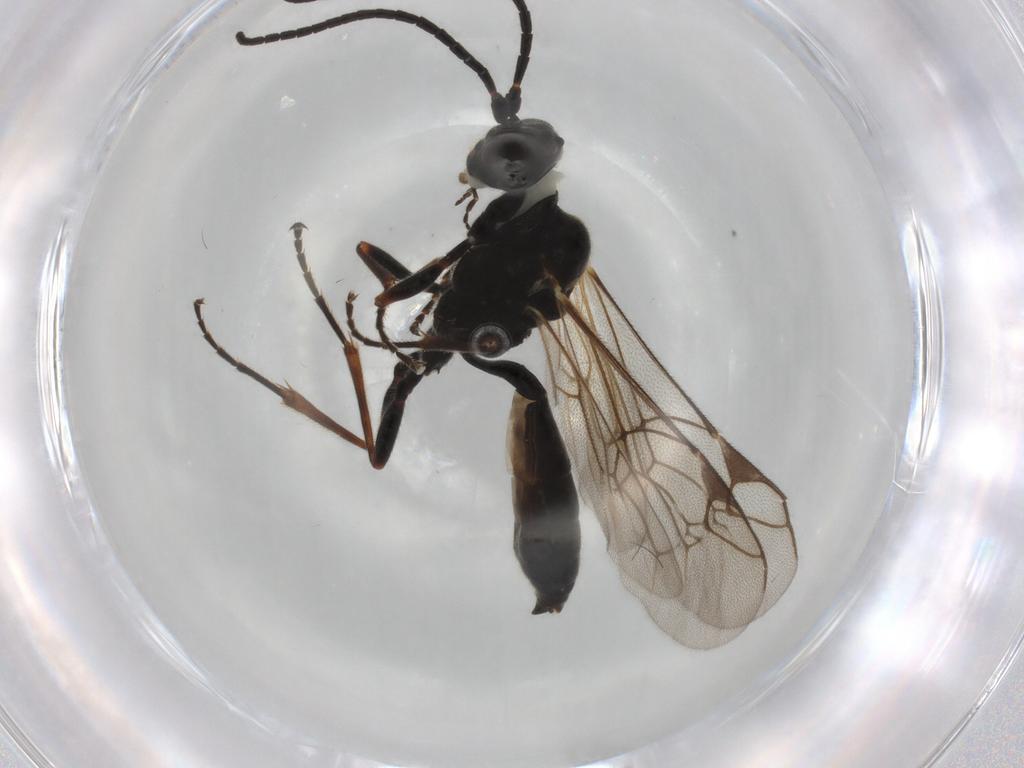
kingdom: Animalia
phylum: Arthropoda
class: Insecta
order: Hymenoptera
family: Ichneumonidae
